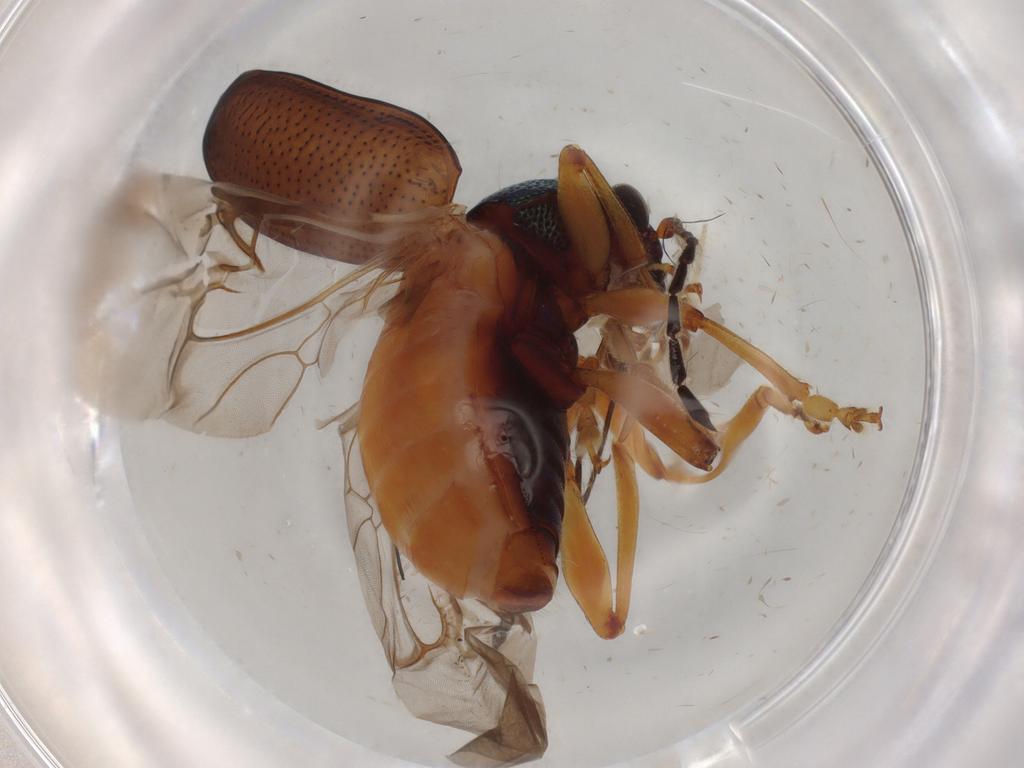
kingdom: Animalia
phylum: Arthropoda
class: Insecta
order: Coleoptera
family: Chrysomelidae
